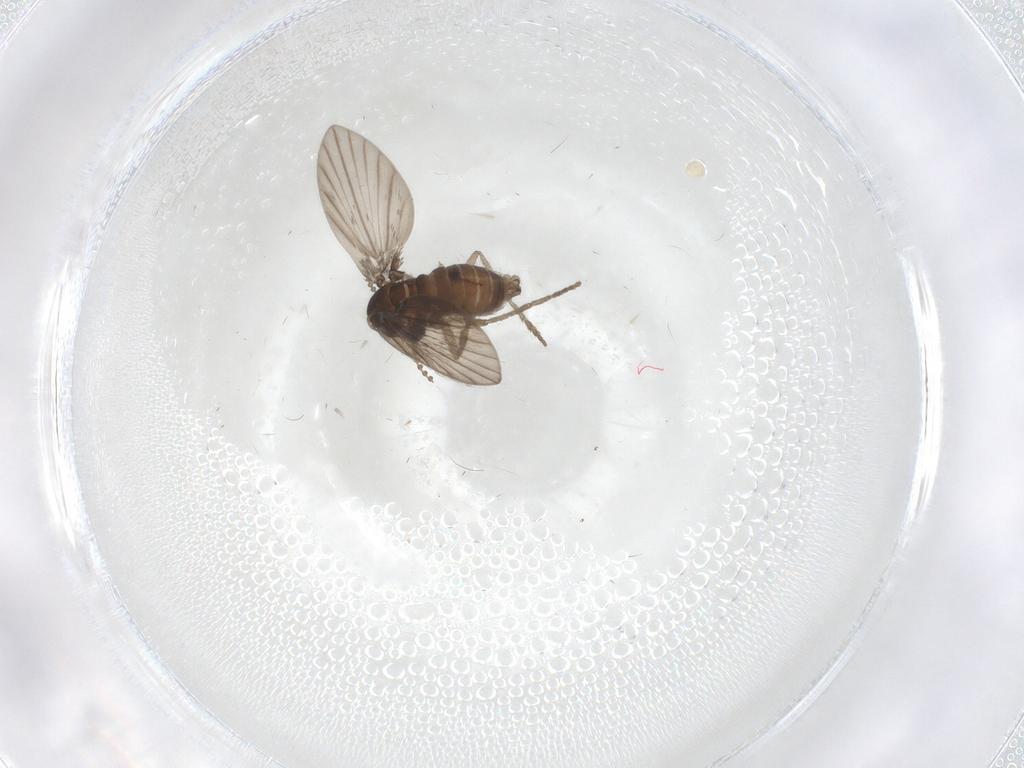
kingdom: Animalia
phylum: Arthropoda
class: Insecta
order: Diptera
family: Psychodidae
